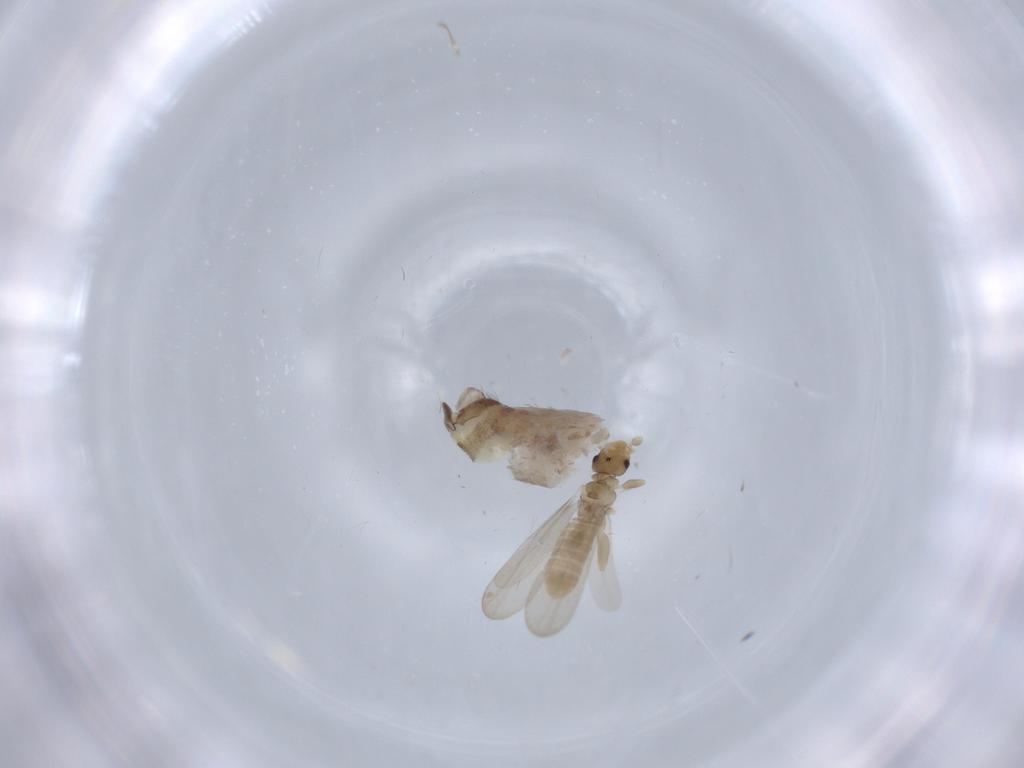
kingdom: Animalia
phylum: Arthropoda
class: Insecta
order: Psocodea
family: Liposcelididae
